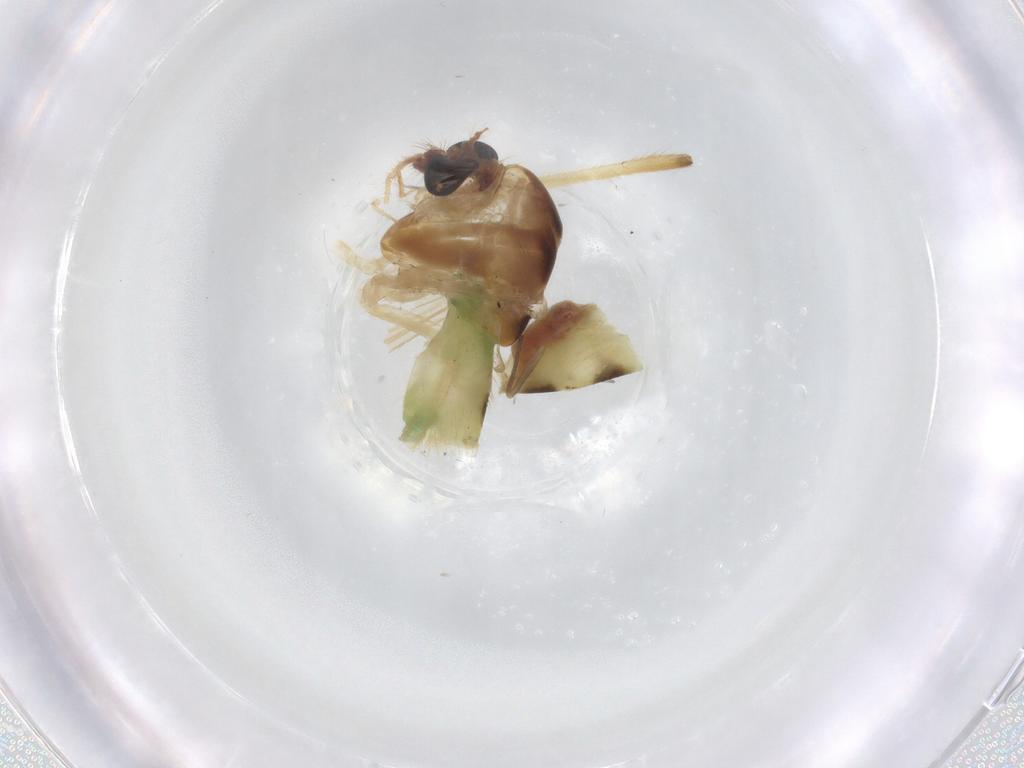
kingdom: Animalia
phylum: Arthropoda
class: Insecta
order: Diptera
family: Chironomidae
